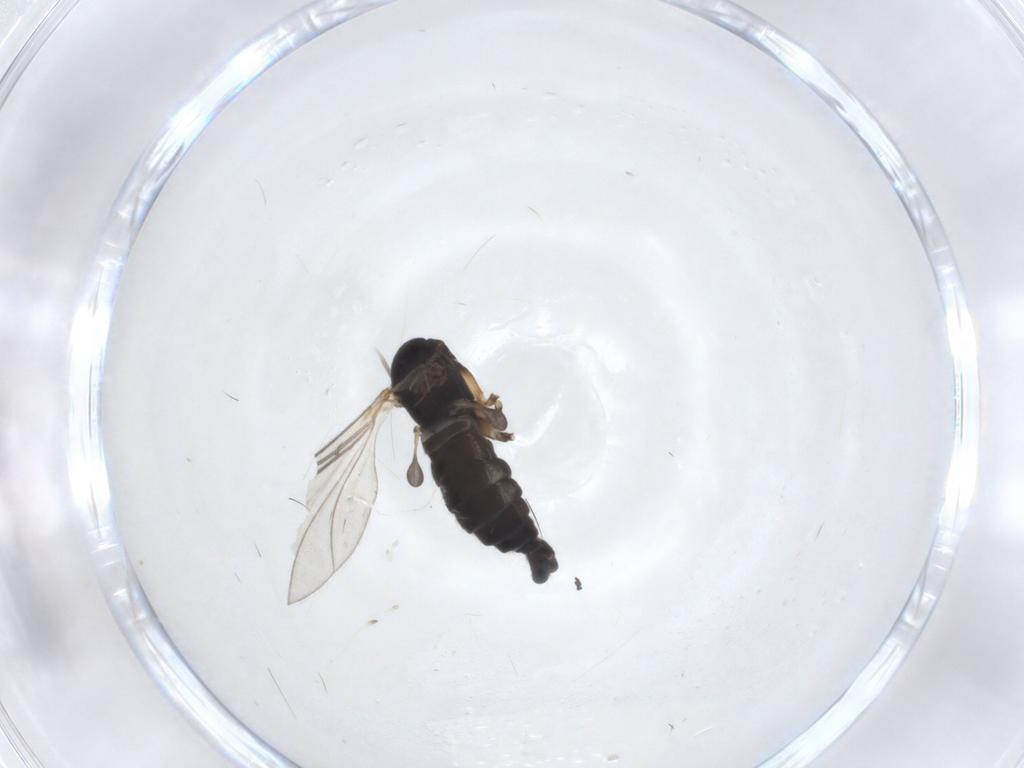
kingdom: Animalia
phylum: Arthropoda
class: Insecta
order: Diptera
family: Sciaridae
